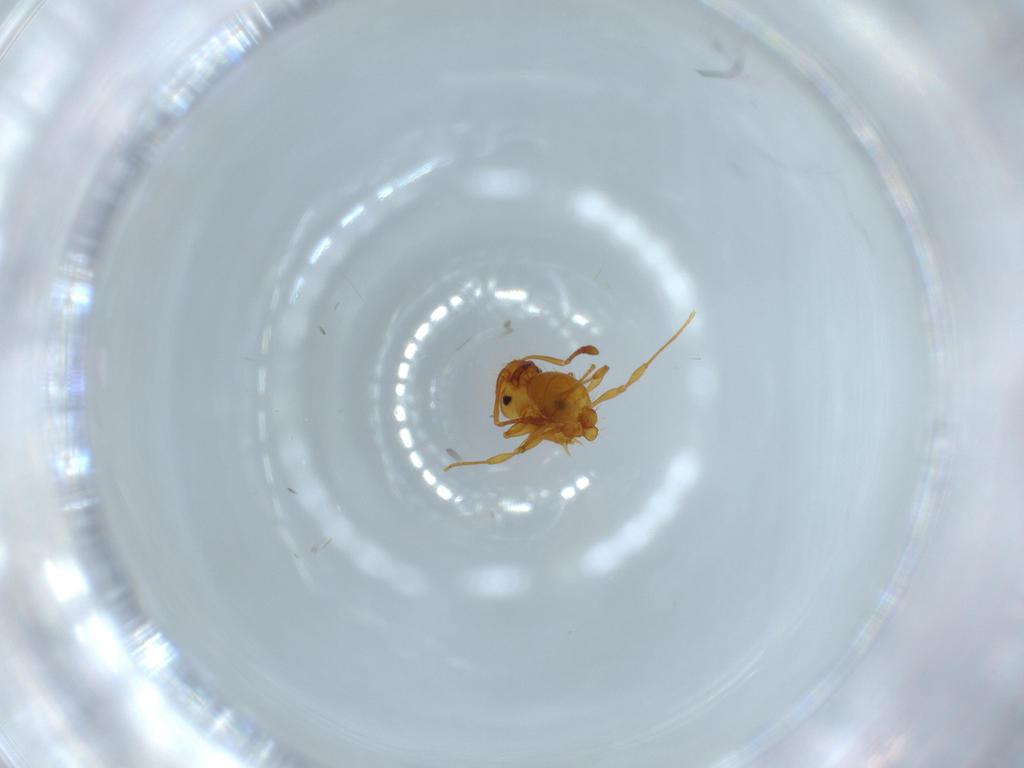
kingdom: Animalia
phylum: Arthropoda
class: Insecta
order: Hymenoptera
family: Formicidae
